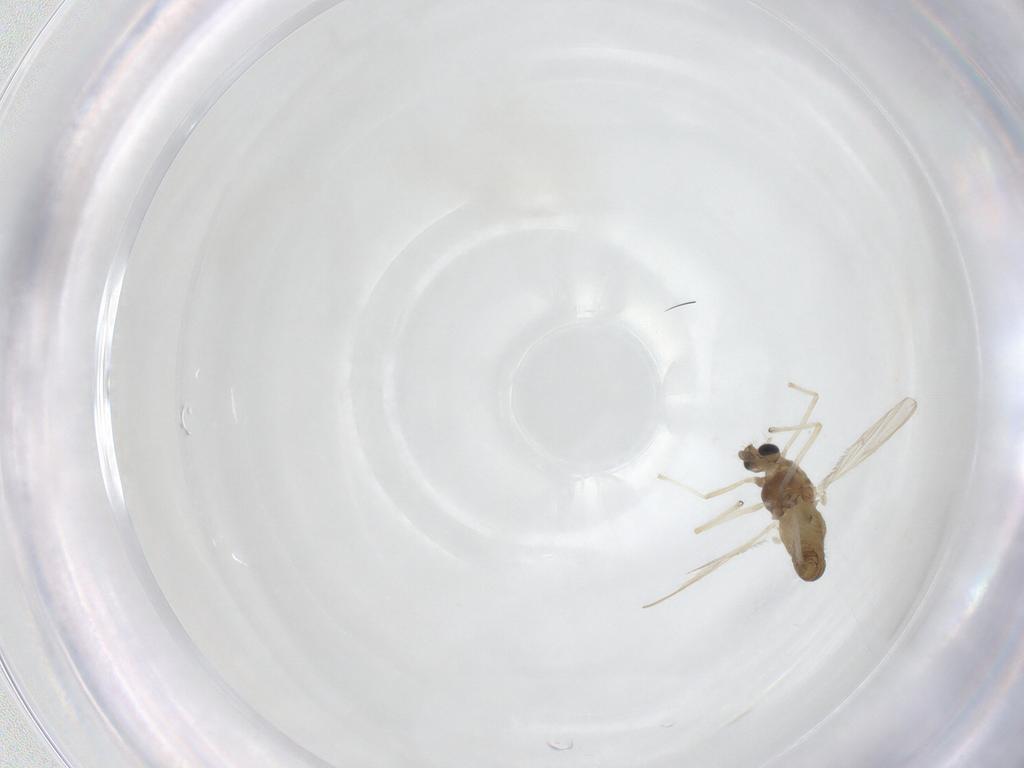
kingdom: Animalia
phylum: Arthropoda
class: Insecta
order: Diptera
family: Chironomidae
